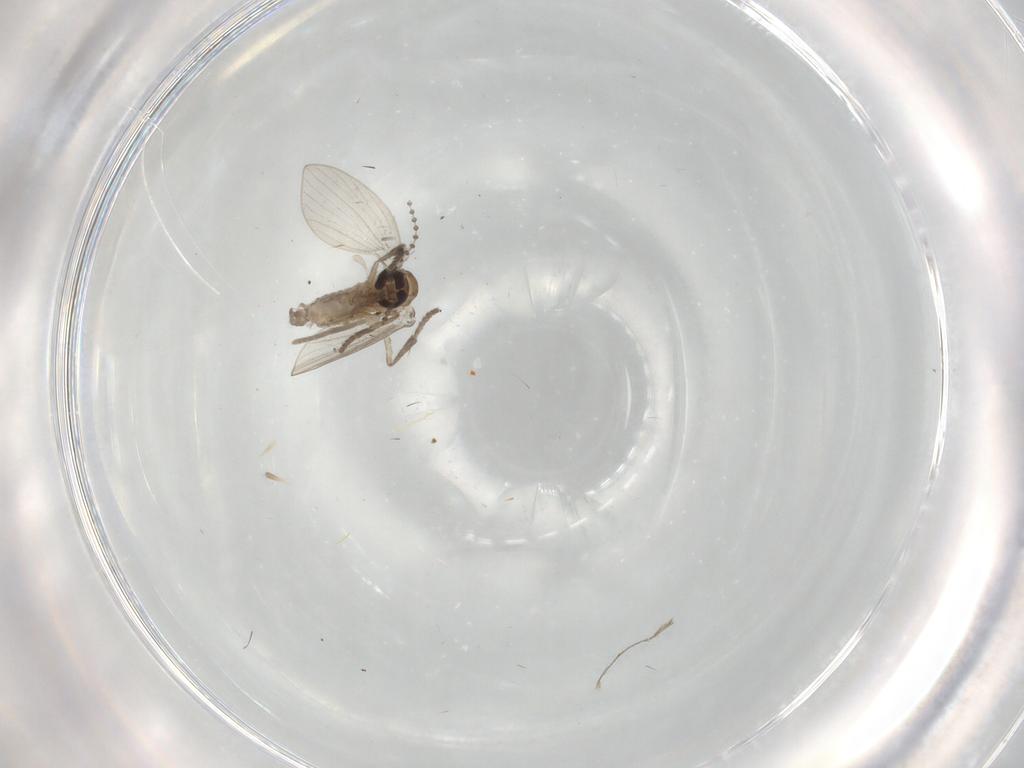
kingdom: Animalia
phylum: Arthropoda
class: Insecta
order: Diptera
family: Psychodidae
